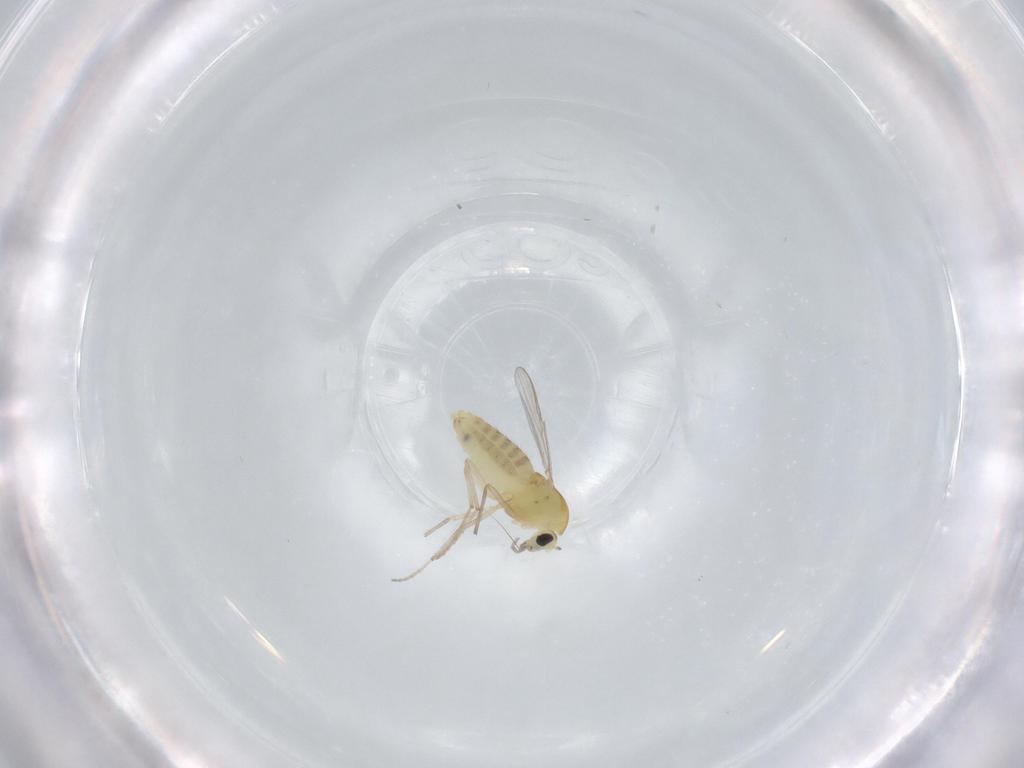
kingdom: Animalia
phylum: Arthropoda
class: Insecta
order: Diptera
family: Chironomidae
